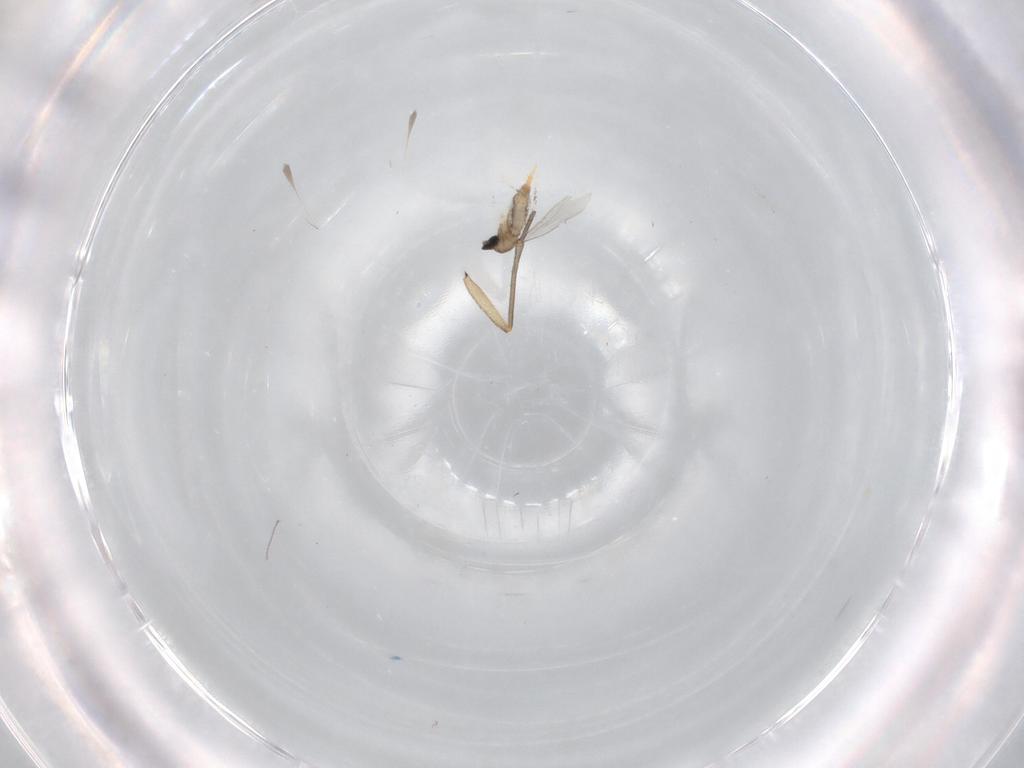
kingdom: Animalia
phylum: Arthropoda
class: Insecta
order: Diptera
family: Cecidomyiidae
